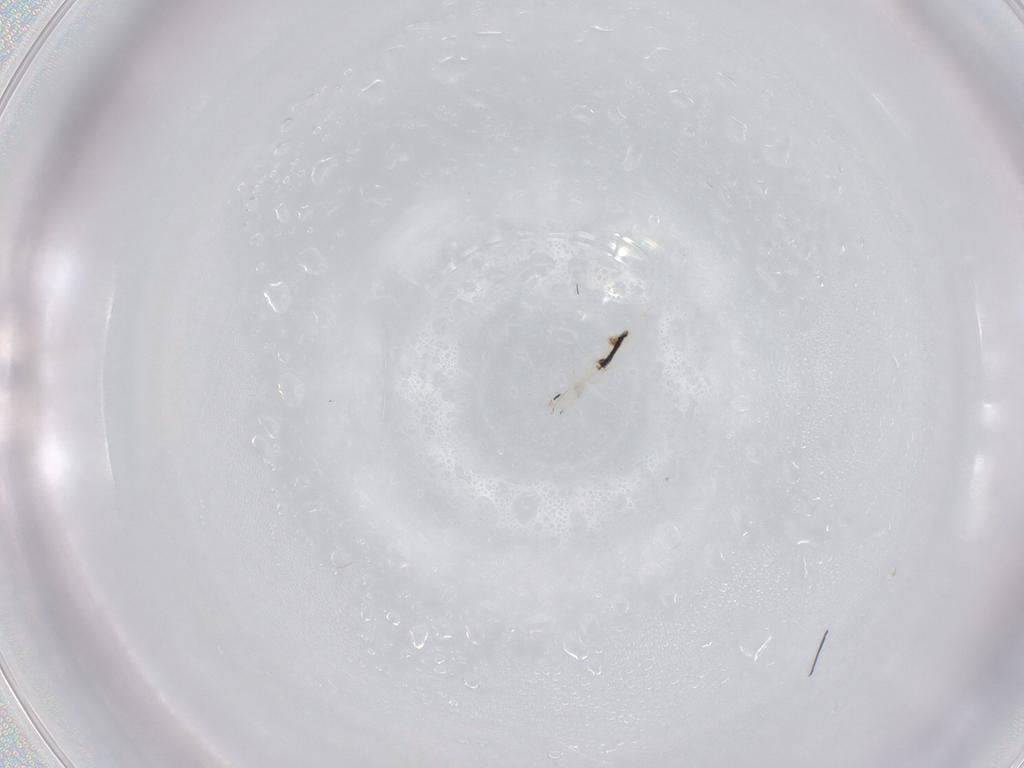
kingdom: Animalia
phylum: Arthropoda
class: Collembola
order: Entomobryomorpha
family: Entomobryidae
